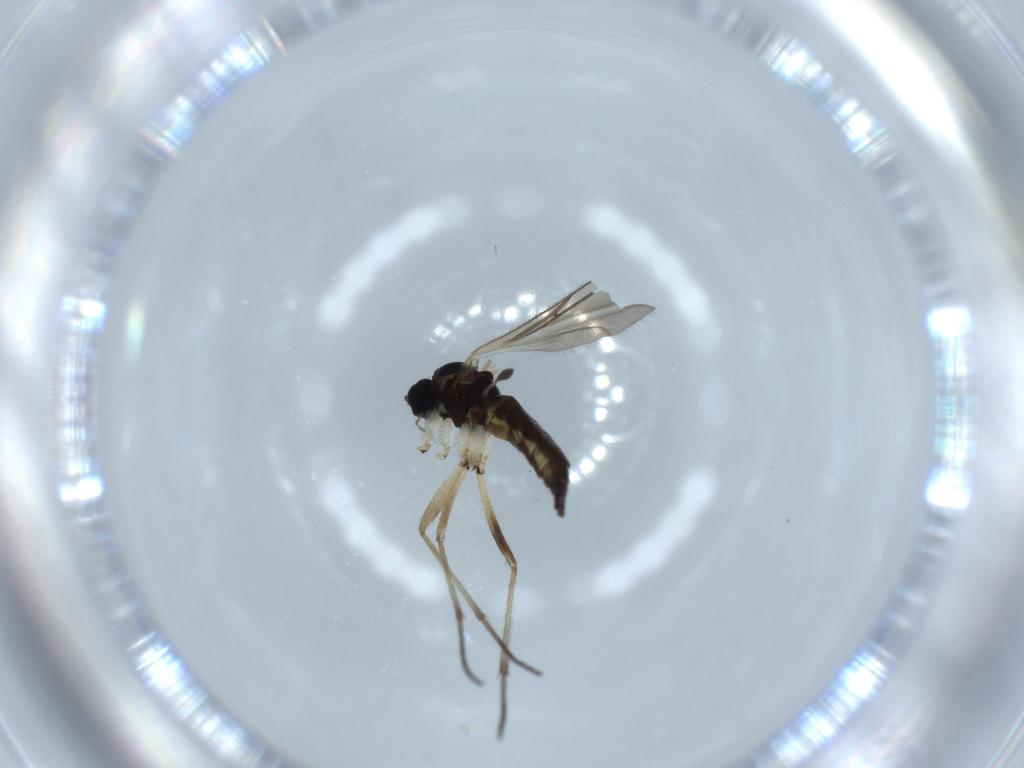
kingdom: Animalia
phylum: Arthropoda
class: Insecta
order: Diptera
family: Sciaridae
